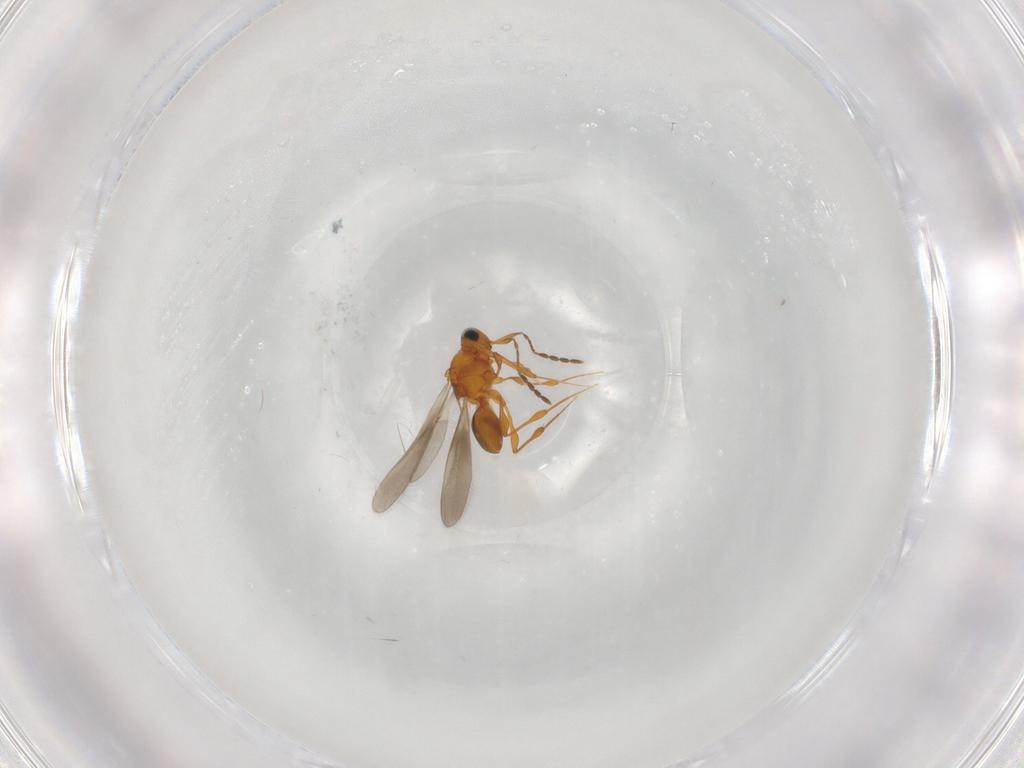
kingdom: Animalia
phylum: Arthropoda
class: Insecta
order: Hymenoptera
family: Platygastridae
